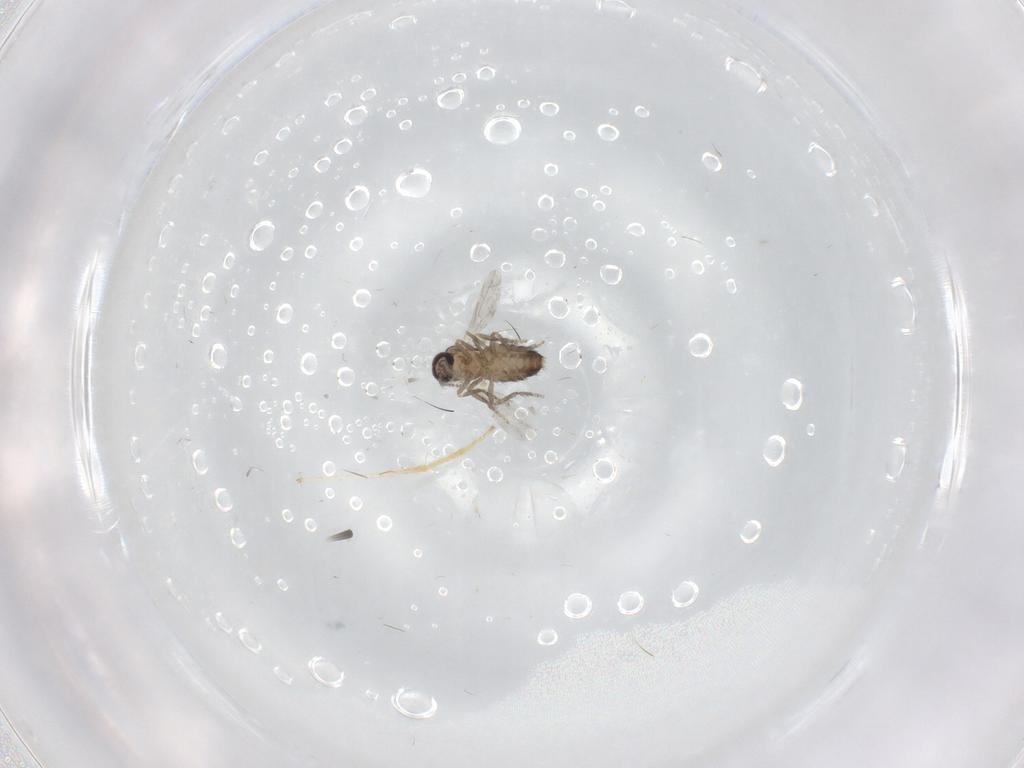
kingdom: Animalia
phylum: Arthropoda
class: Insecta
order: Diptera
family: Ceratopogonidae
